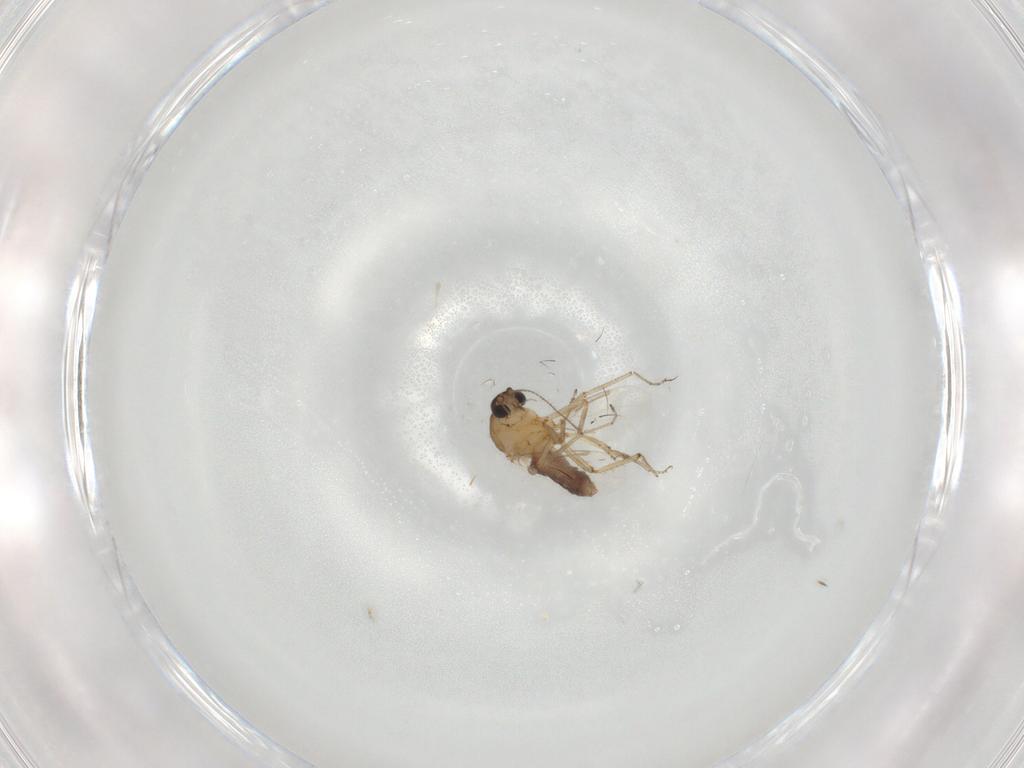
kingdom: Animalia
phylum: Arthropoda
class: Insecta
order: Diptera
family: Ceratopogonidae
